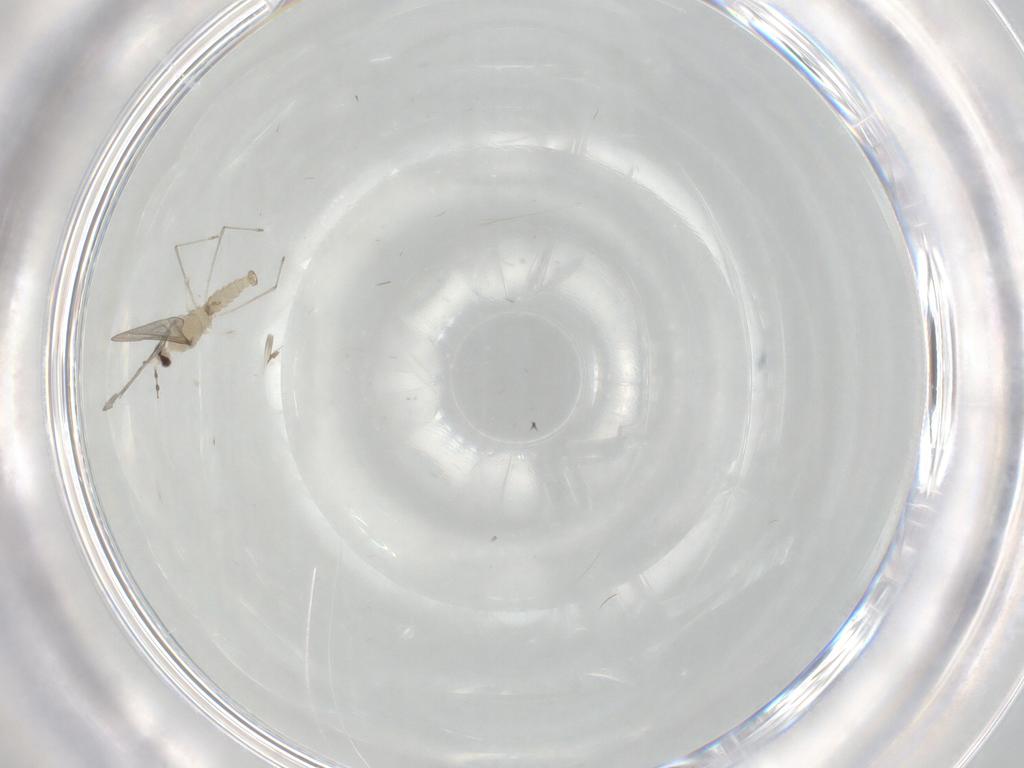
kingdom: Animalia
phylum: Arthropoda
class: Insecta
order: Diptera
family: Cecidomyiidae
